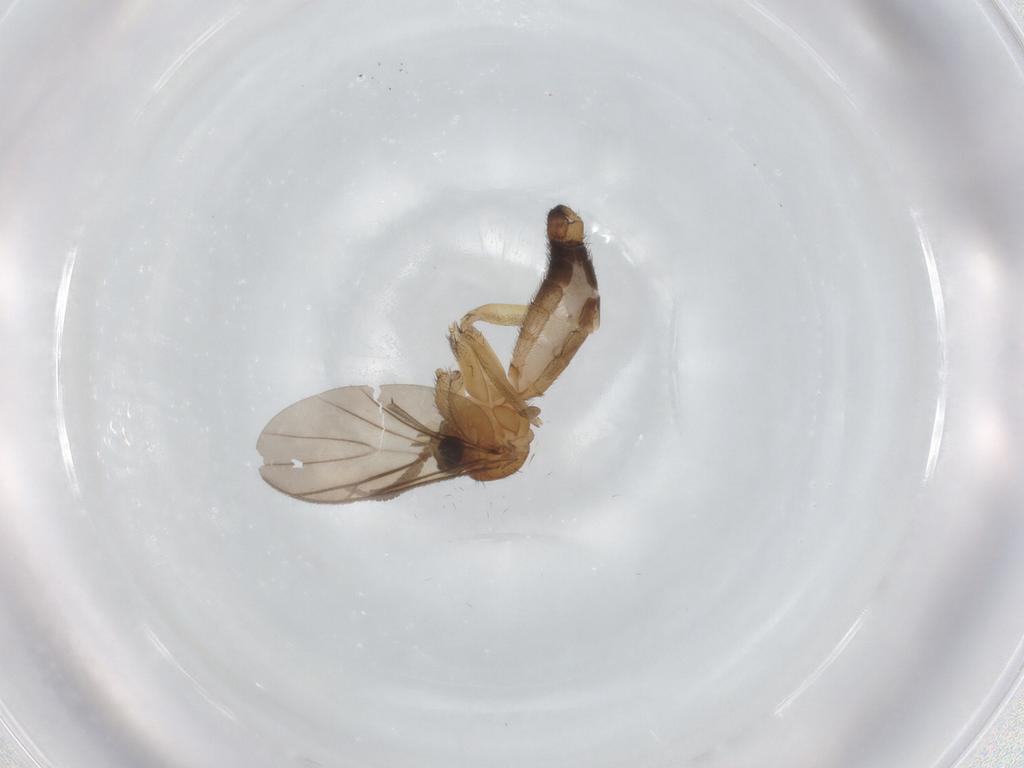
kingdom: Animalia
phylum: Arthropoda
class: Insecta
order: Diptera
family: Keroplatidae
